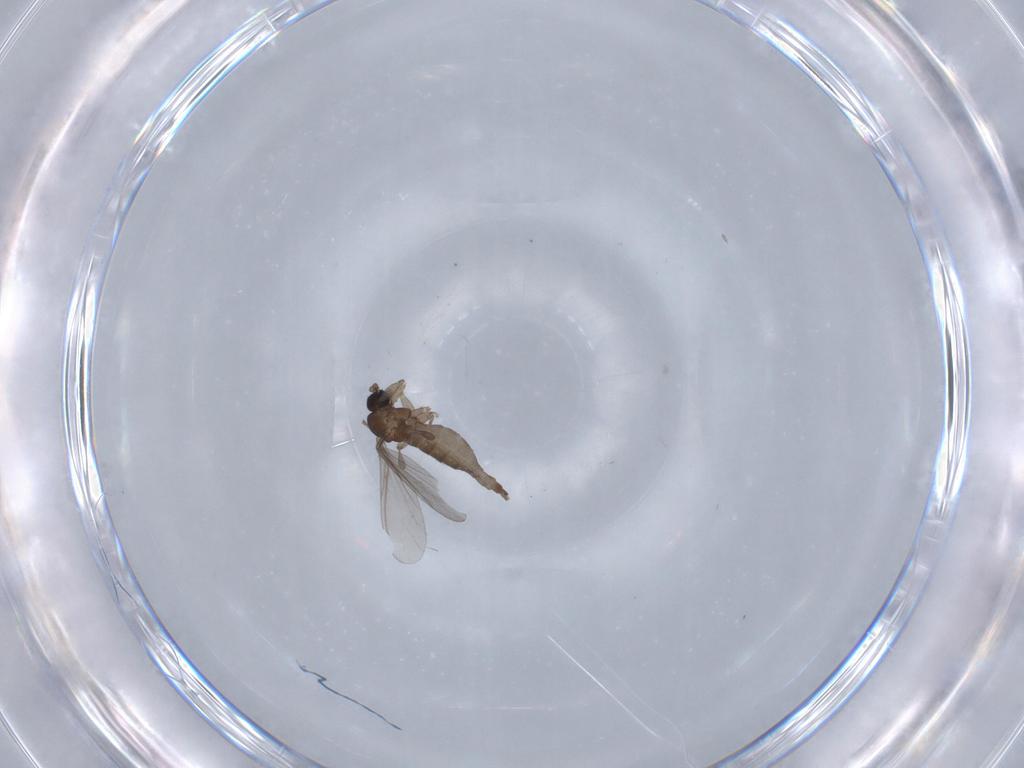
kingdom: Animalia
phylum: Arthropoda
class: Insecta
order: Diptera
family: Sciaridae
